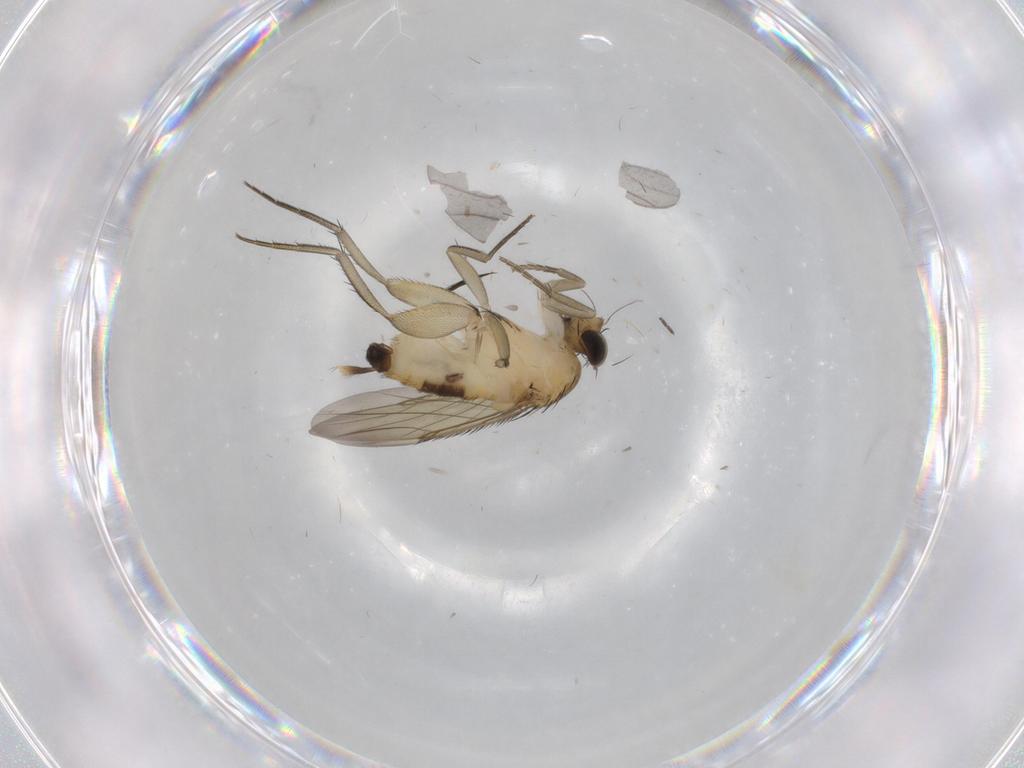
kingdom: Animalia
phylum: Arthropoda
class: Insecta
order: Diptera
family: Phoridae
